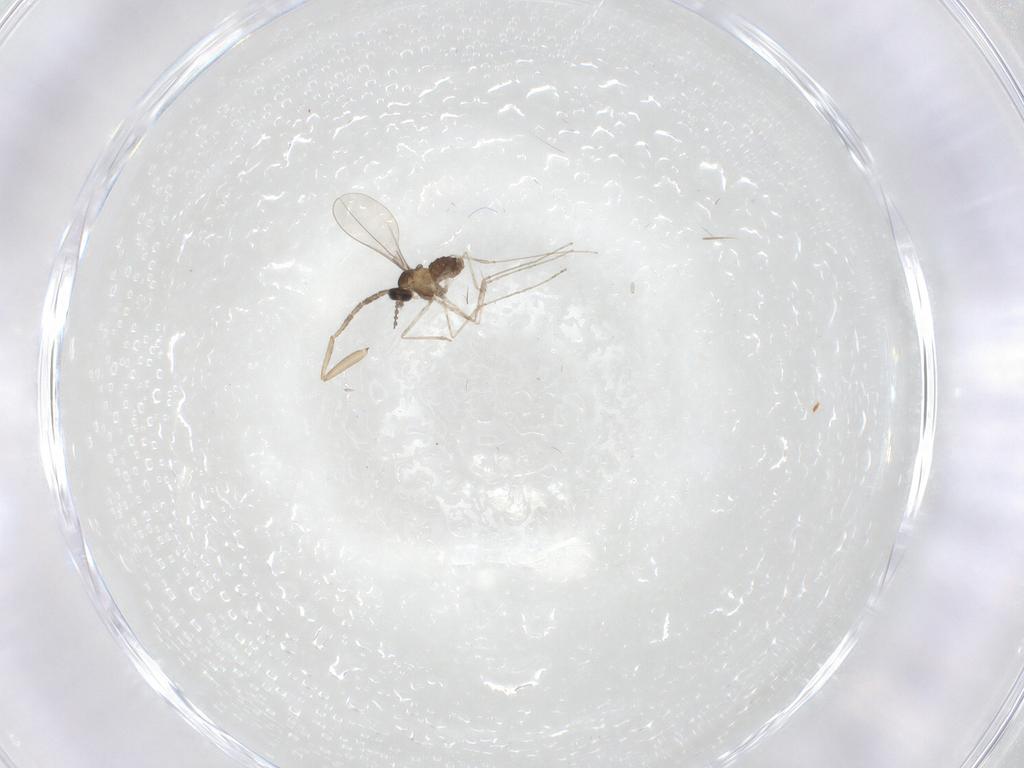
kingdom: Animalia
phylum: Arthropoda
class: Insecta
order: Diptera
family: Cecidomyiidae
